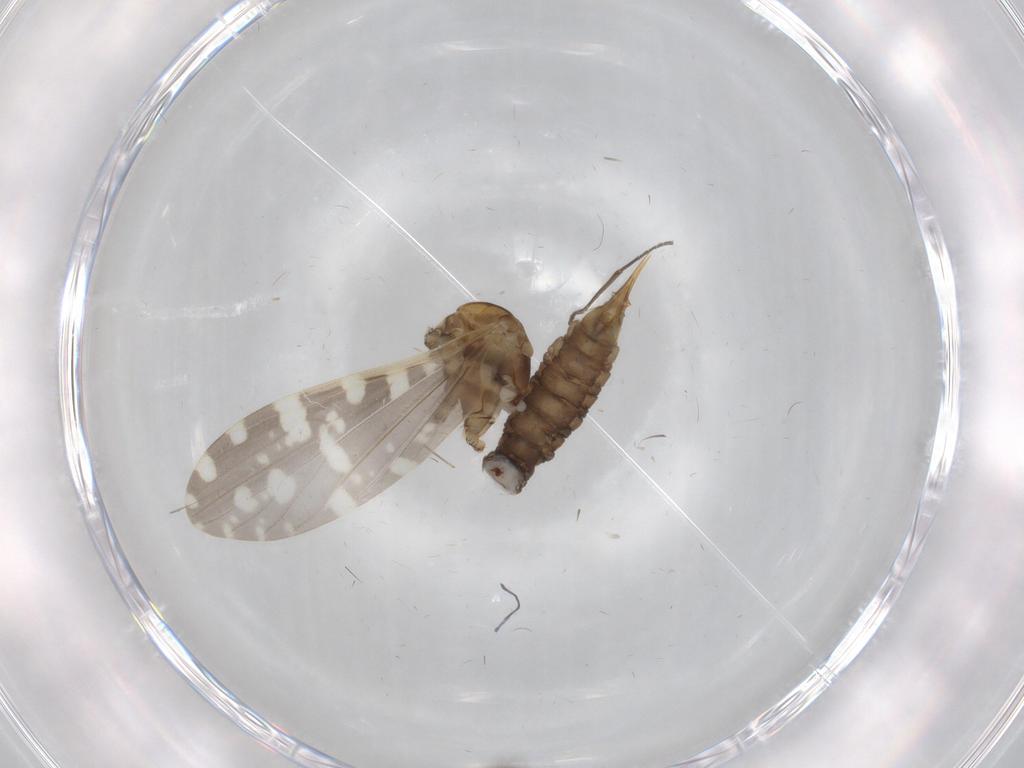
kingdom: Animalia
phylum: Arthropoda
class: Insecta
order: Diptera
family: Limoniidae
